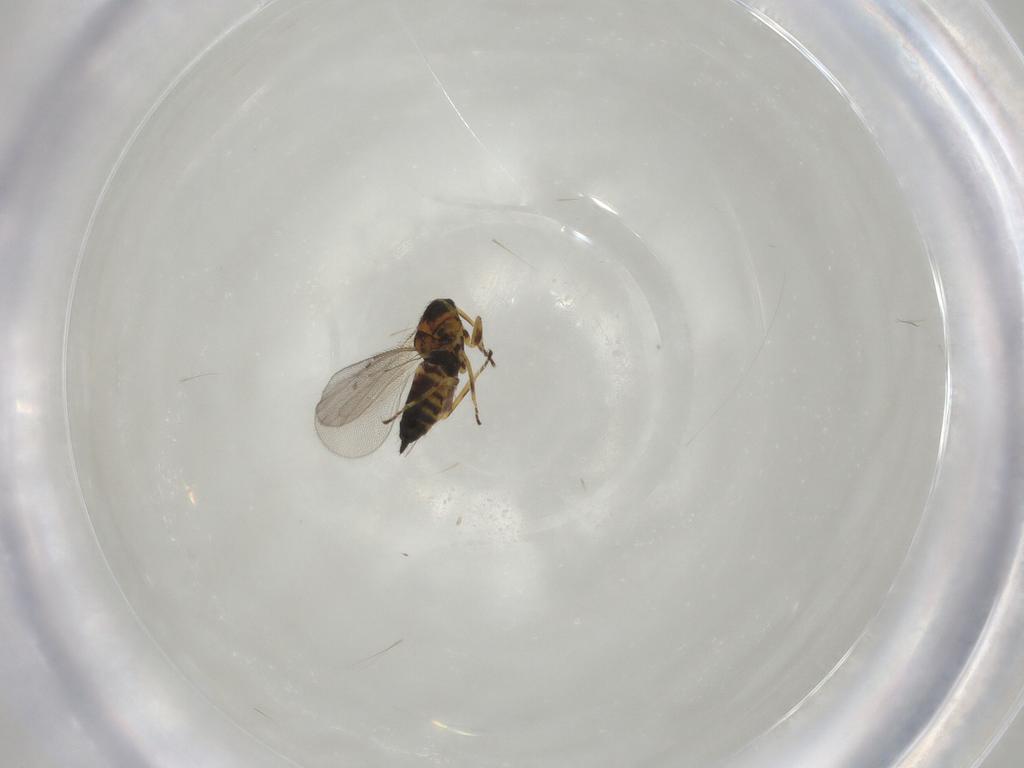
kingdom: Animalia
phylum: Arthropoda
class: Insecta
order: Hymenoptera
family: Eulophidae
